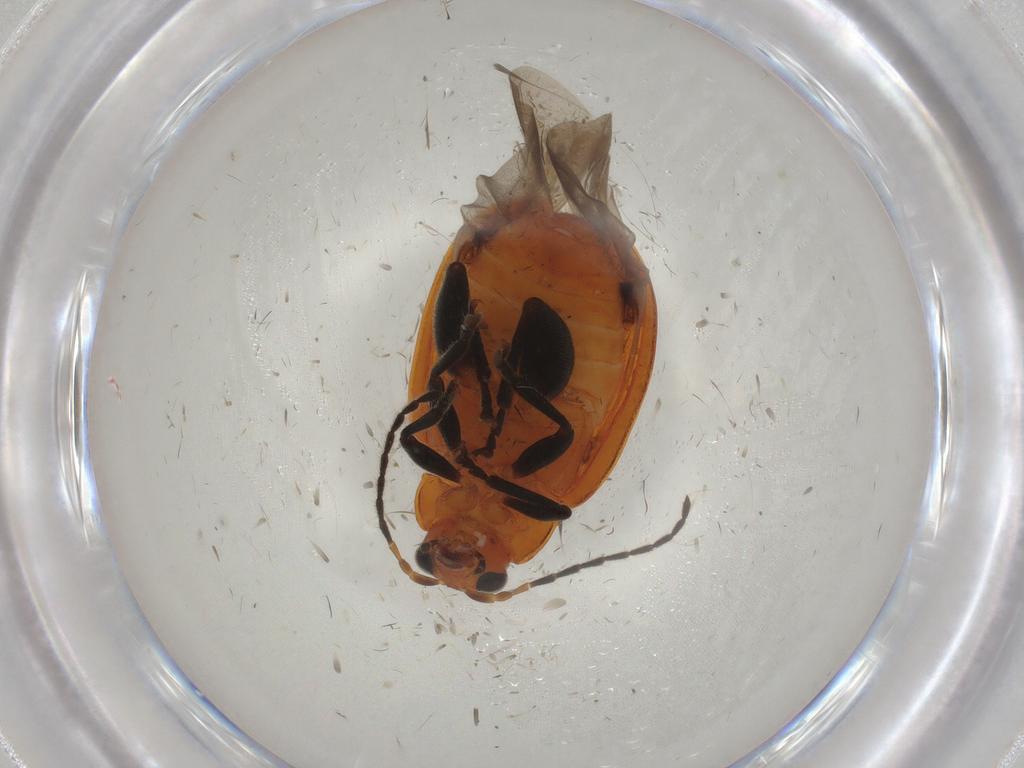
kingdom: Animalia
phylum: Arthropoda
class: Insecta
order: Coleoptera
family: Chrysomelidae
